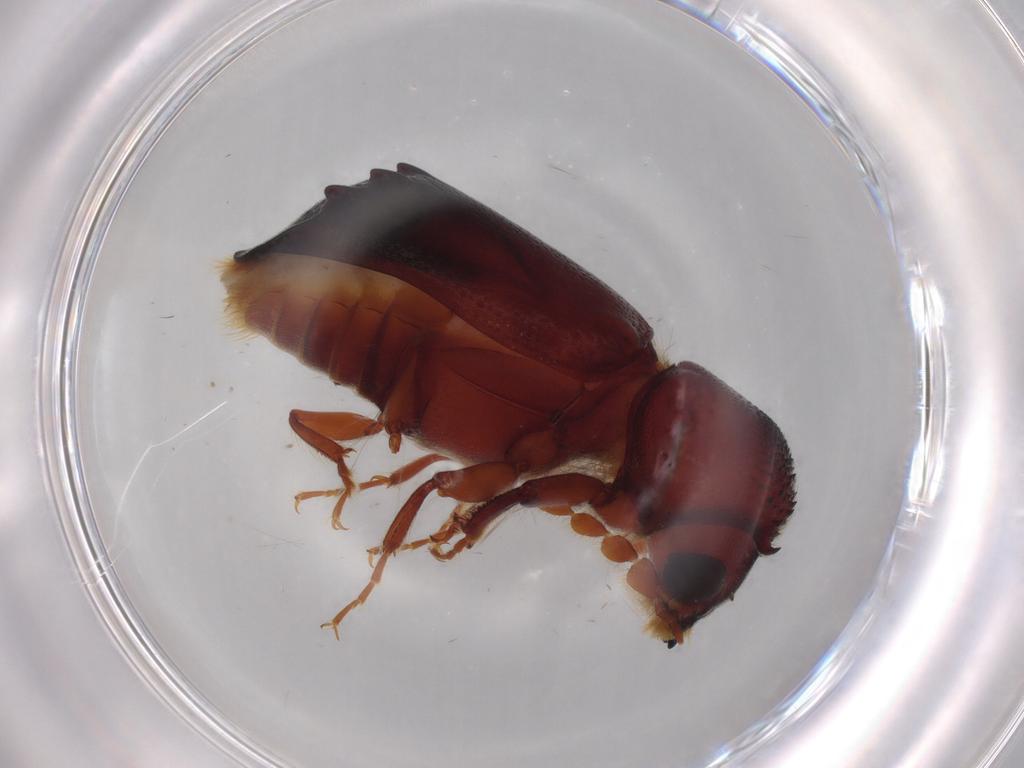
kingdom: Animalia
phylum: Arthropoda
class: Insecta
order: Coleoptera
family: Bostrichidae
